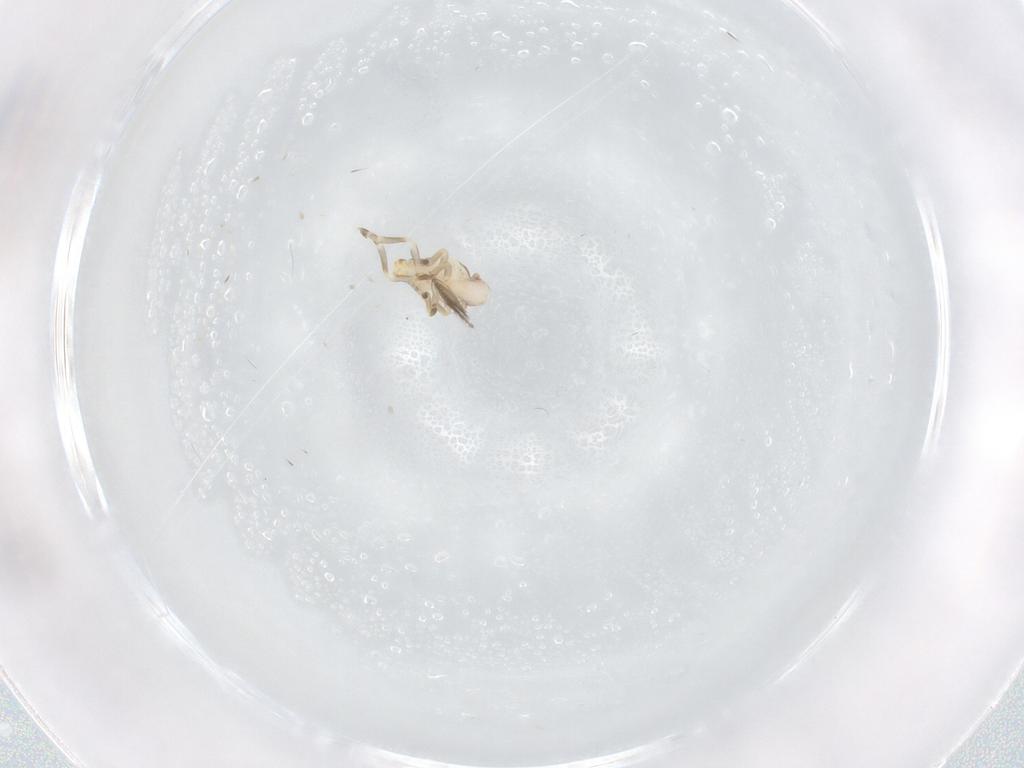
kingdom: Animalia
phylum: Arthropoda
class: Insecta
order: Hemiptera
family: Flatidae
